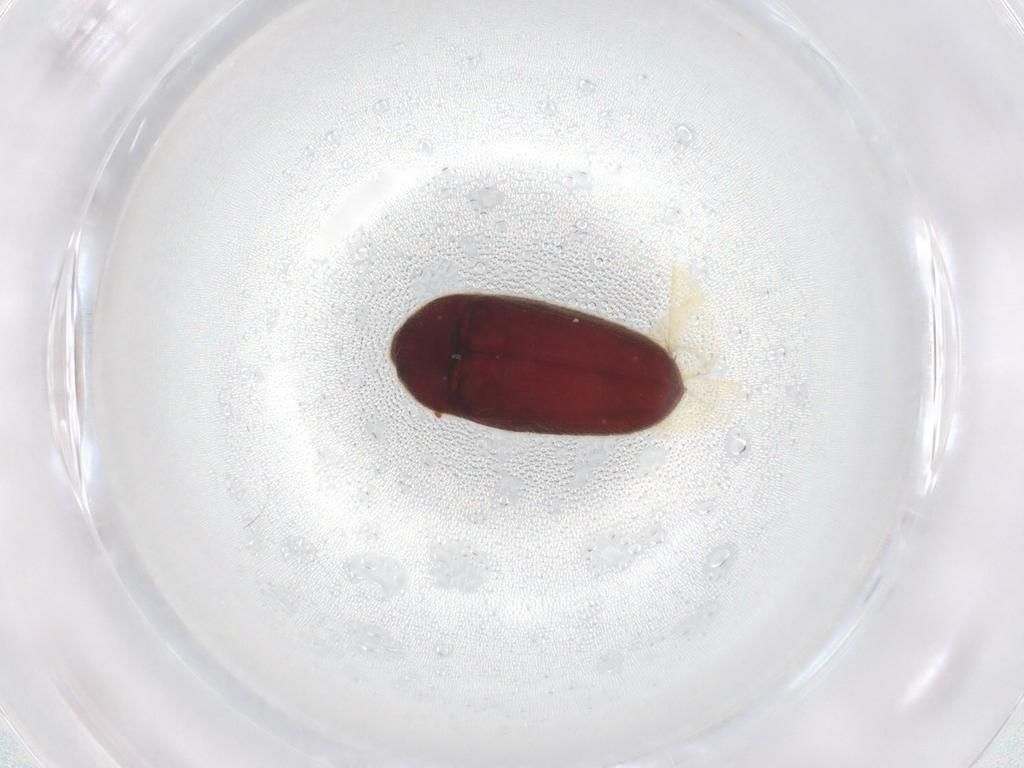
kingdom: Animalia
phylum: Arthropoda
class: Insecta
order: Coleoptera
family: Throscidae
